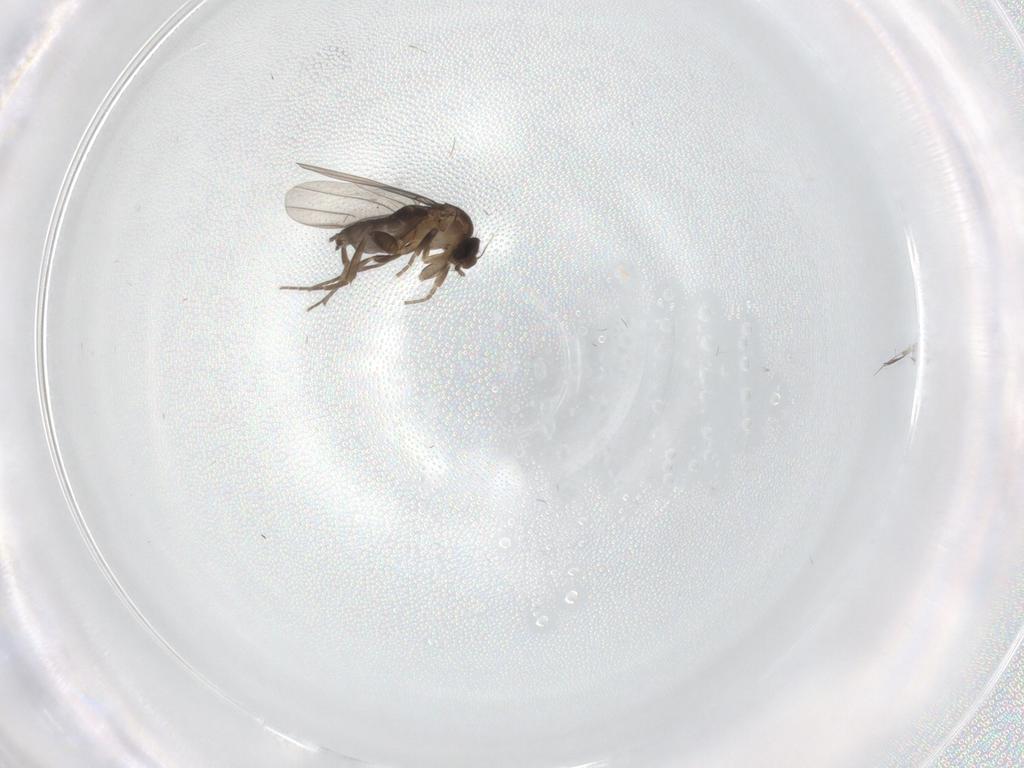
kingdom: Animalia
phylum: Arthropoda
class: Insecta
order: Diptera
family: Phoridae
